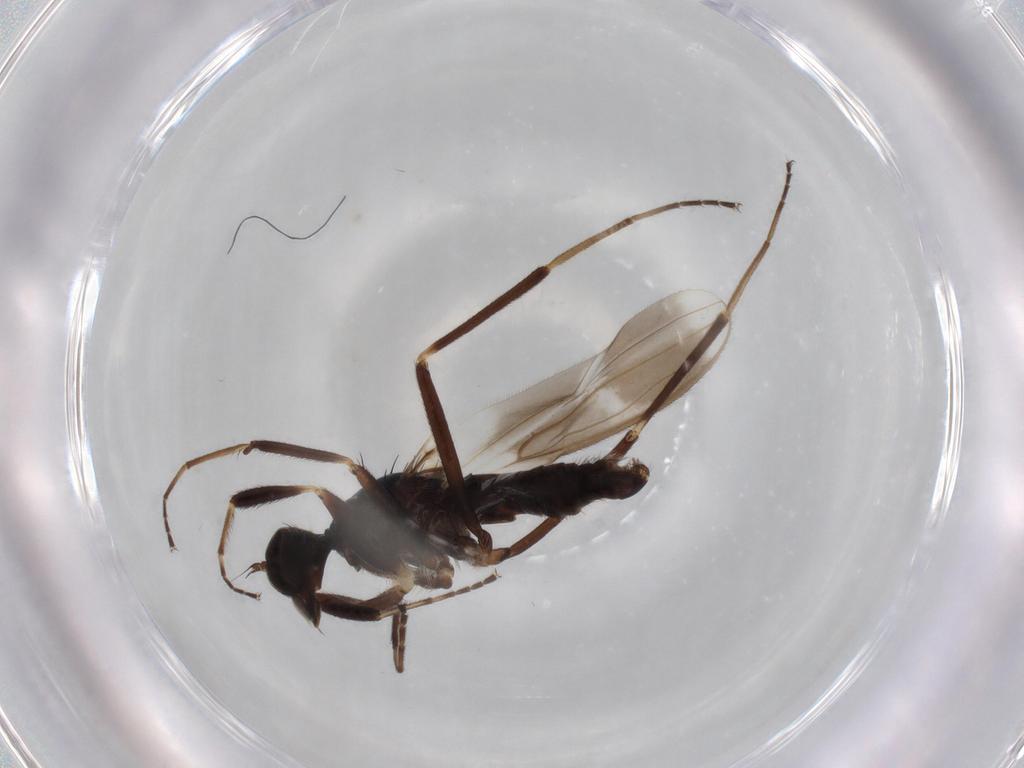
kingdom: Animalia
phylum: Arthropoda
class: Insecta
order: Diptera
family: Hybotidae
